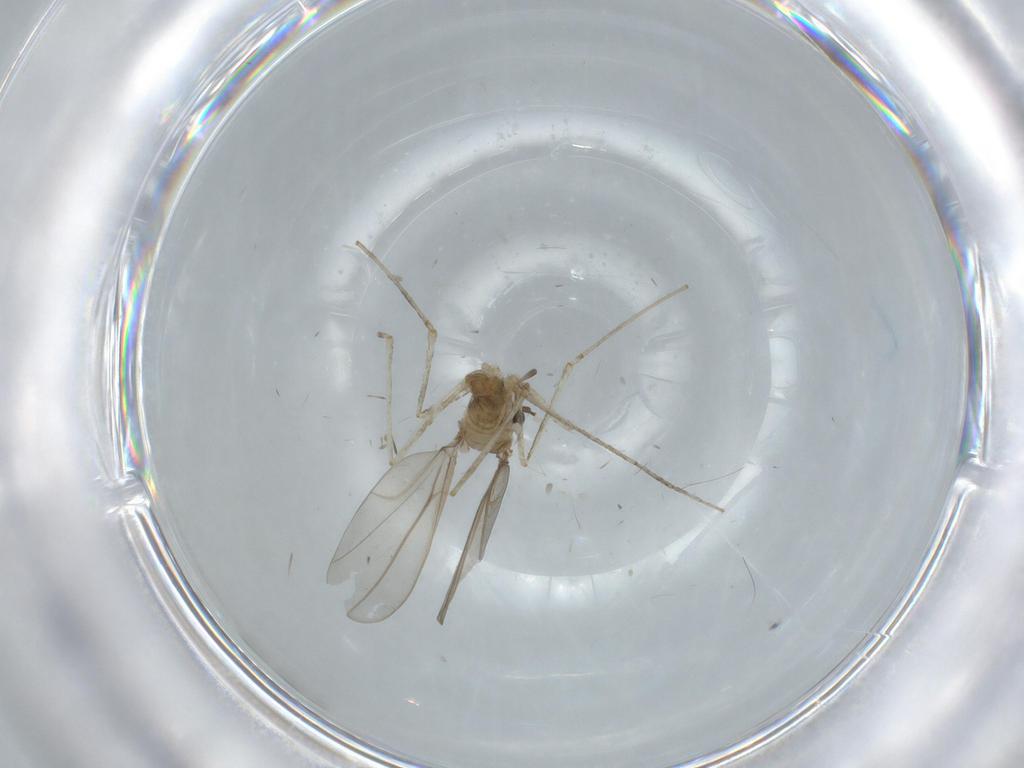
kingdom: Animalia
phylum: Arthropoda
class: Insecta
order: Diptera
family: Cecidomyiidae
